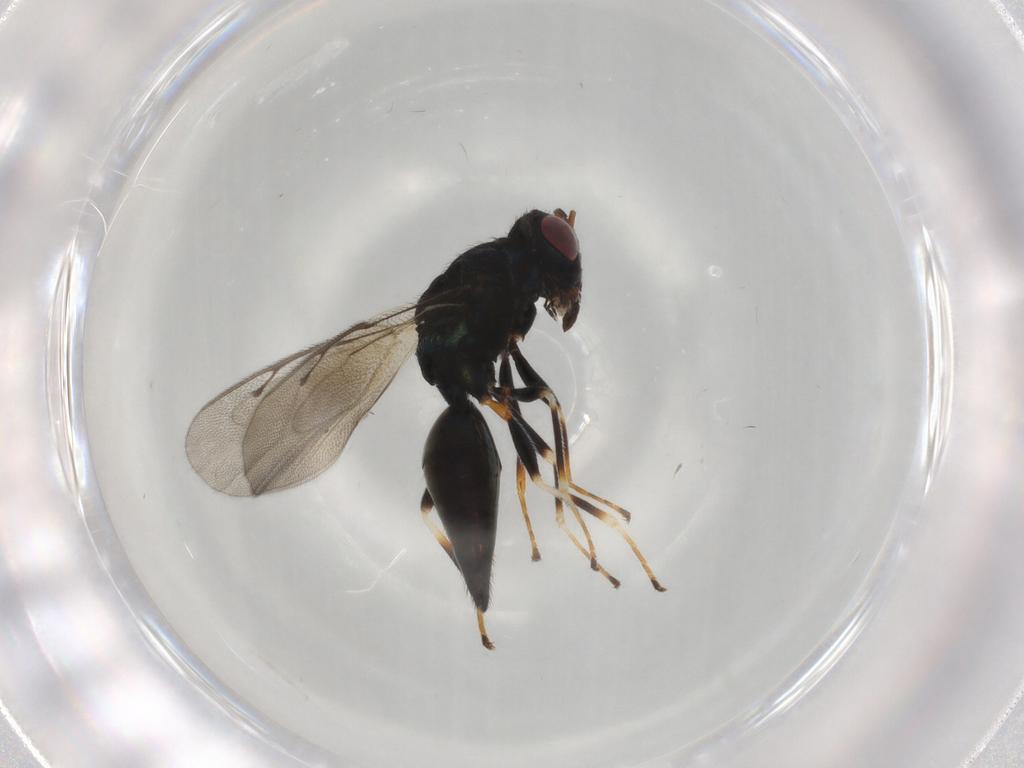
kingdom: Animalia
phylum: Arthropoda
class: Insecta
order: Hymenoptera
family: Pteromalidae
